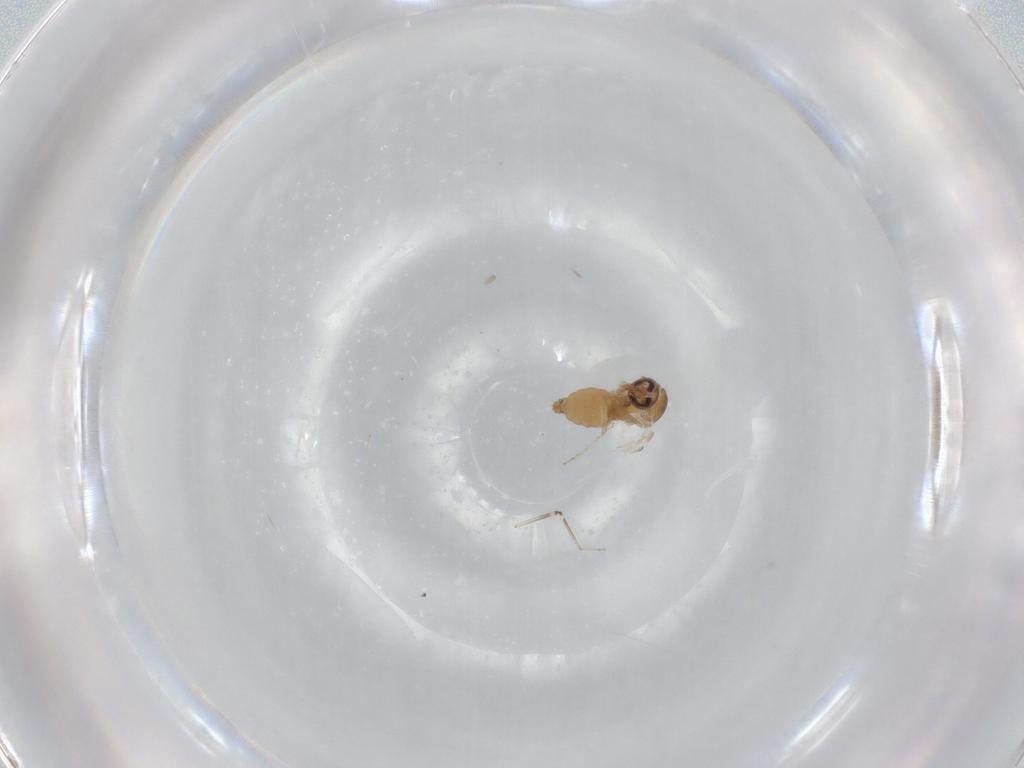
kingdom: Animalia
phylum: Arthropoda
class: Insecta
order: Diptera
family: Psychodidae
